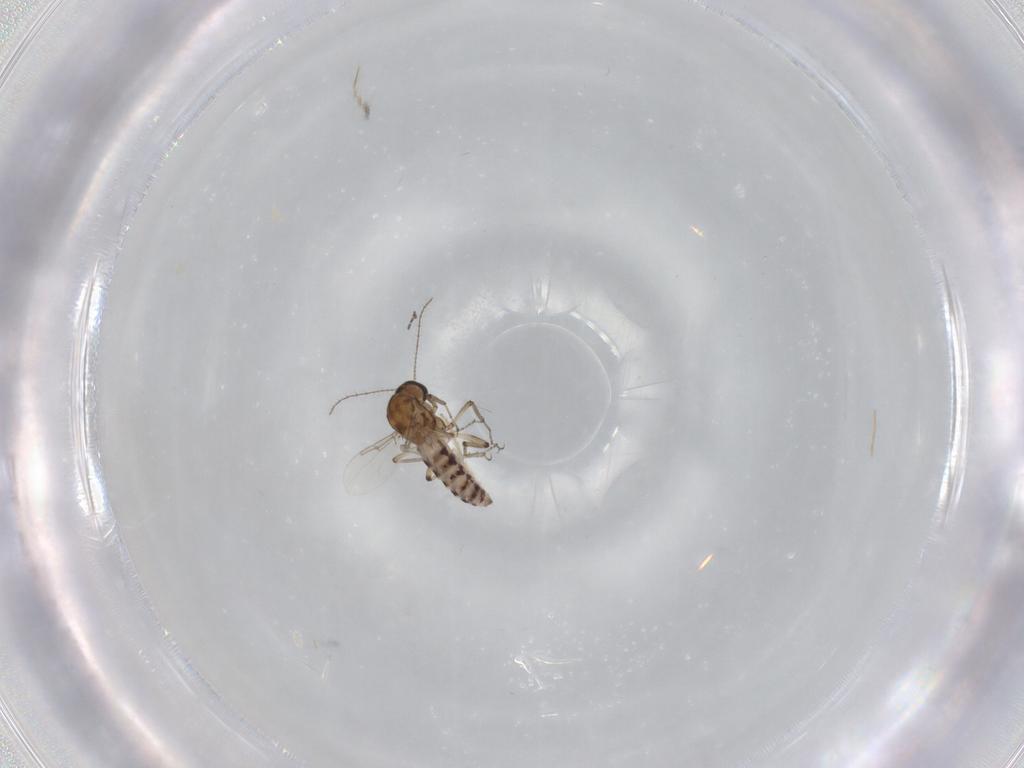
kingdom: Animalia
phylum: Arthropoda
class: Insecta
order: Diptera
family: Ceratopogonidae
